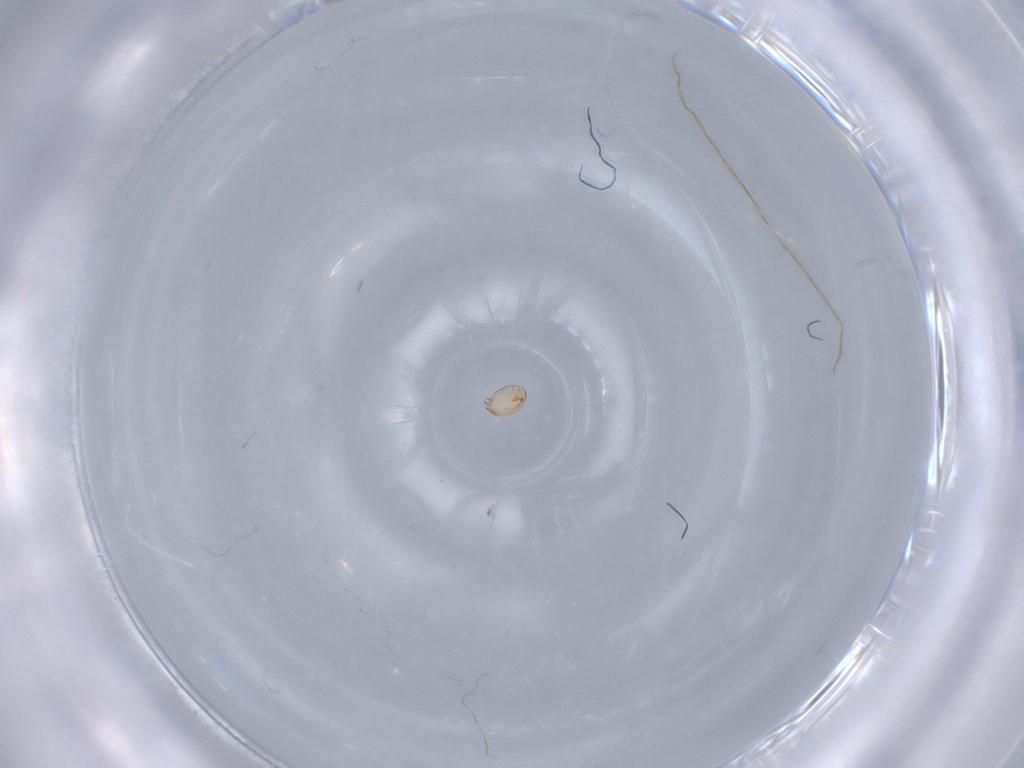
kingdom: Animalia
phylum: Arthropoda
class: Arachnida
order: Sarcoptiformes
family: Acaridae
